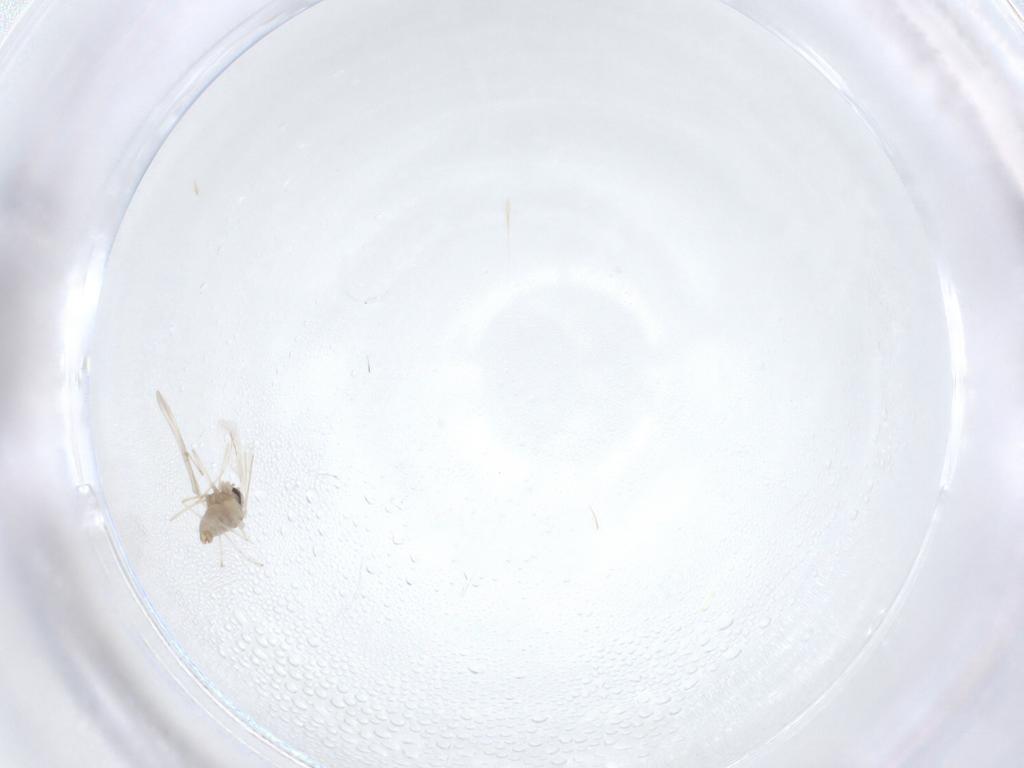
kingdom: Animalia
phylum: Arthropoda
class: Insecta
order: Diptera
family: Cecidomyiidae
